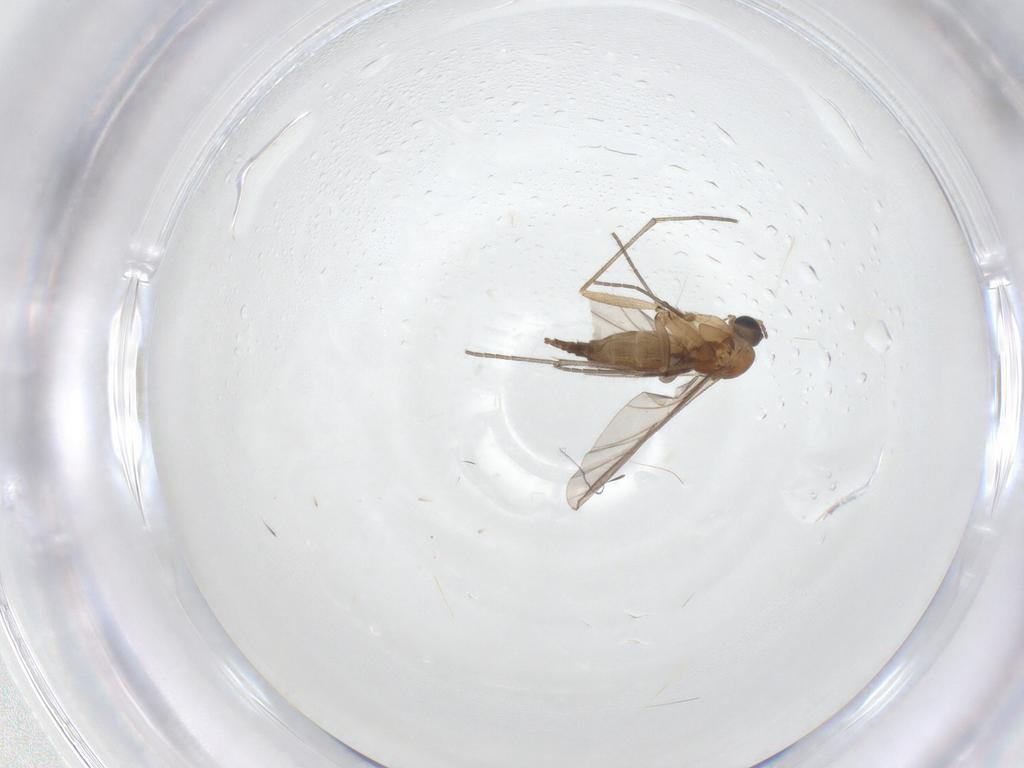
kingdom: Animalia
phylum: Arthropoda
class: Insecta
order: Diptera
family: Sciaridae
